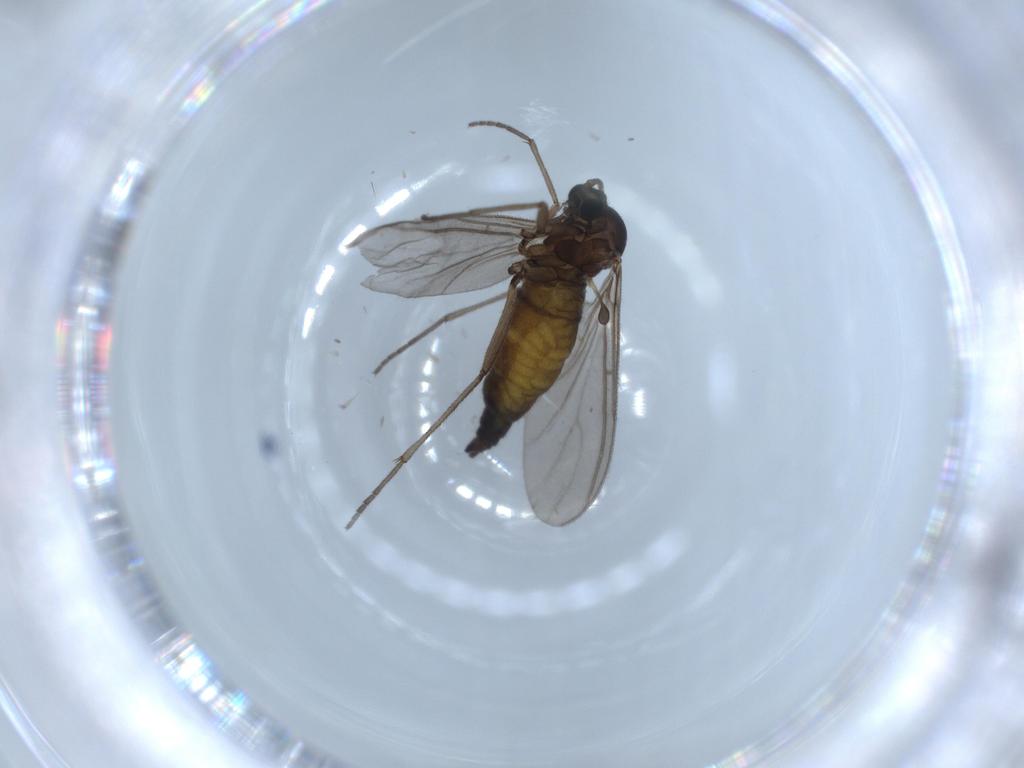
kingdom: Animalia
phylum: Arthropoda
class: Insecta
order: Diptera
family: Sciaridae
